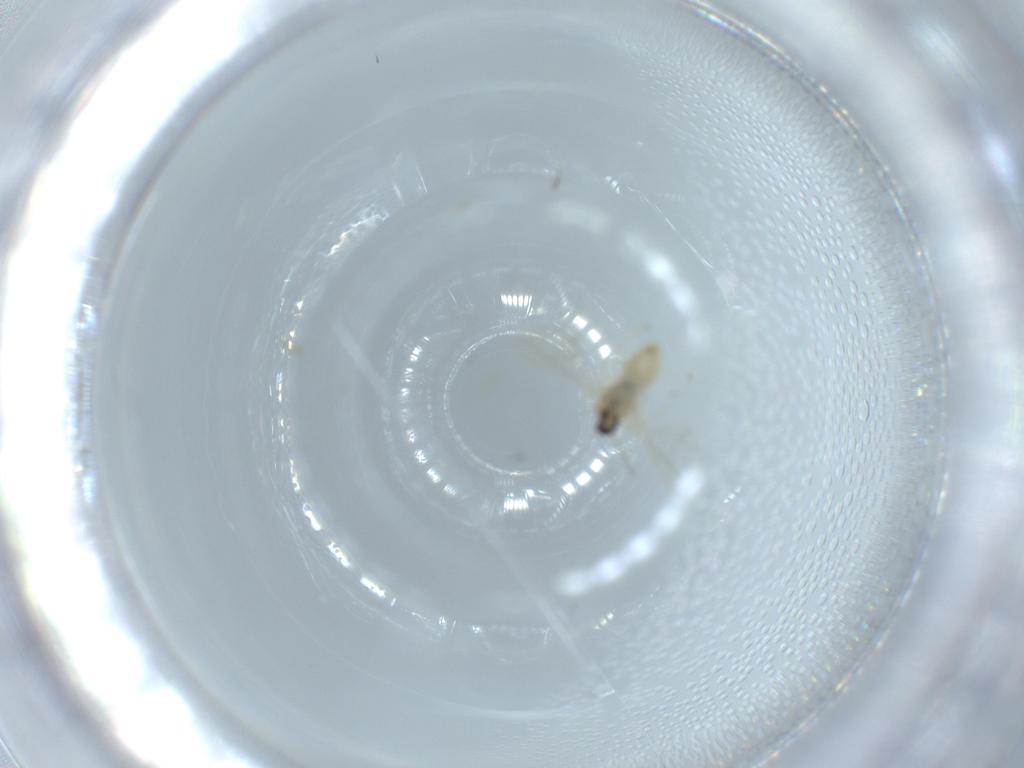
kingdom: Animalia
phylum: Arthropoda
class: Insecta
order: Diptera
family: Cecidomyiidae
